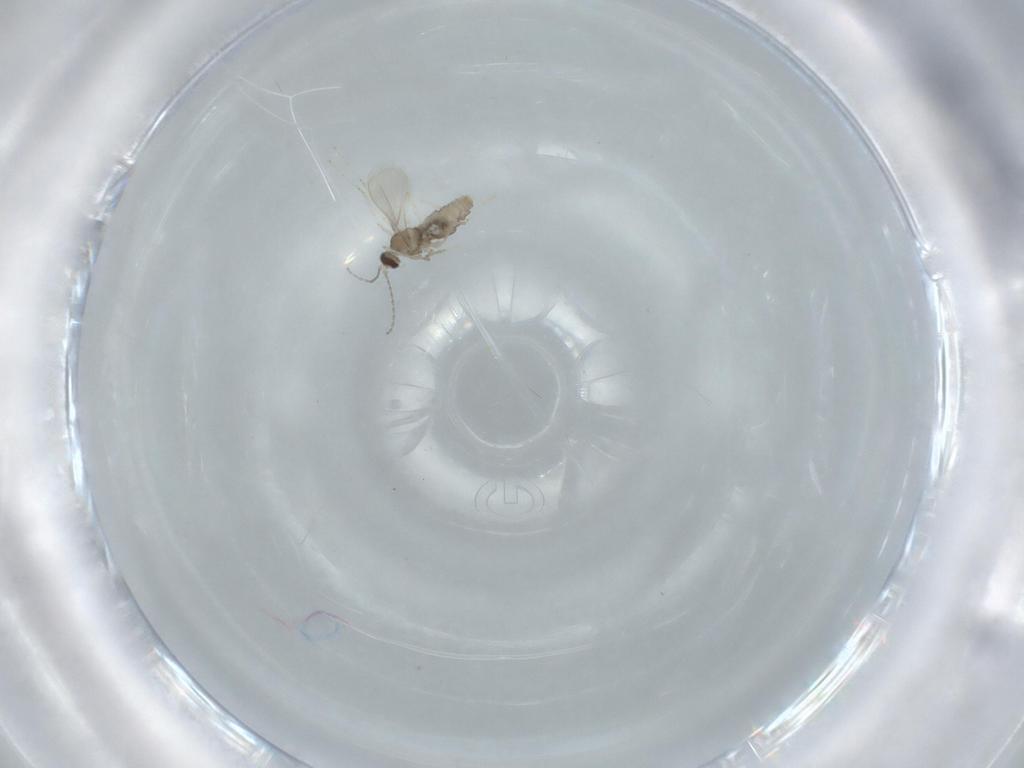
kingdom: Animalia
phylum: Arthropoda
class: Insecta
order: Diptera
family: Cecidomyiidae
